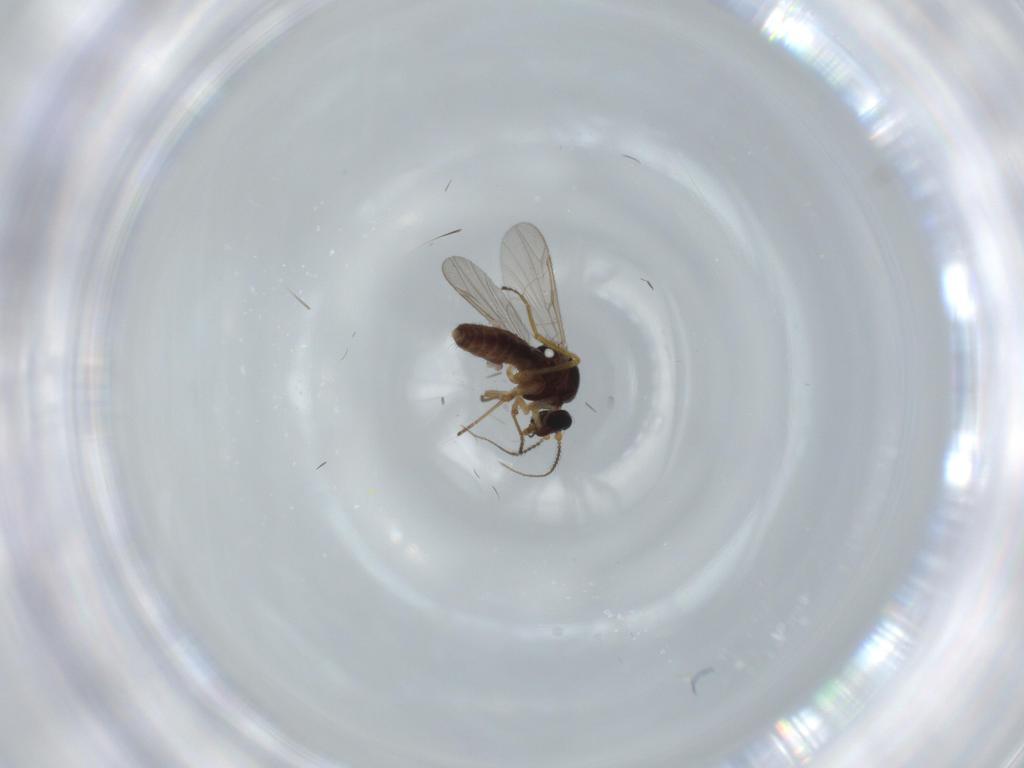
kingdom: Animalia
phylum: Arthropoda
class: Insecta
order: Diptera
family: Ceratopogonidae
